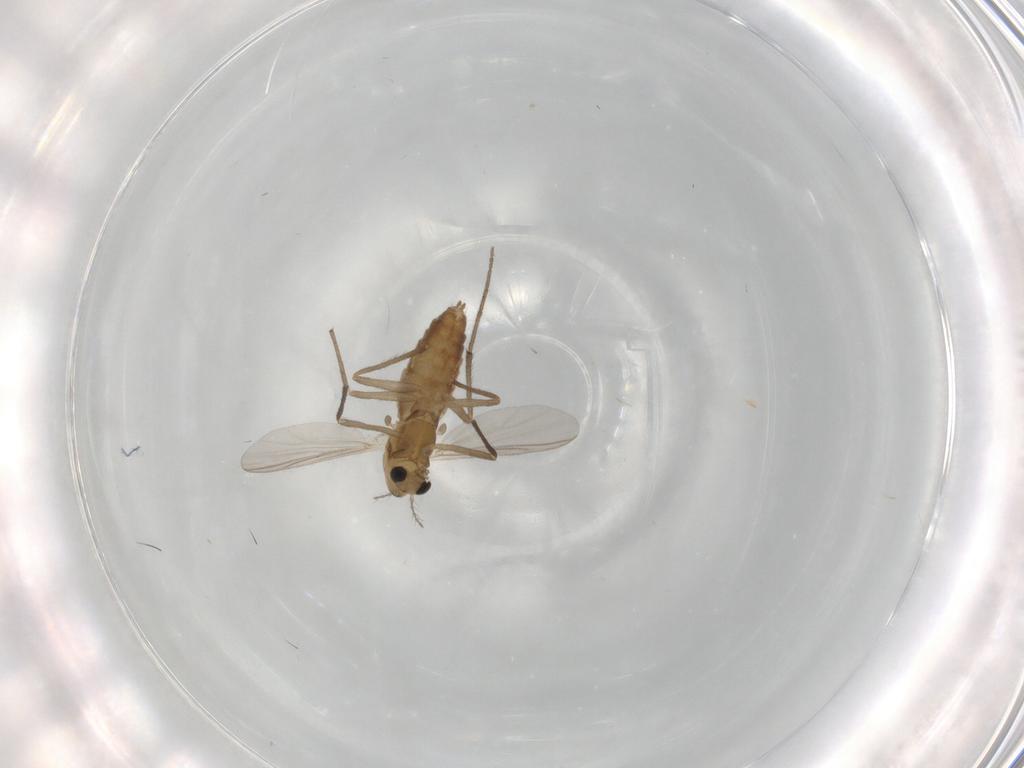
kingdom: Animalia
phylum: Arthropoda
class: Insecta
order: Diptera
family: Chironomidae
